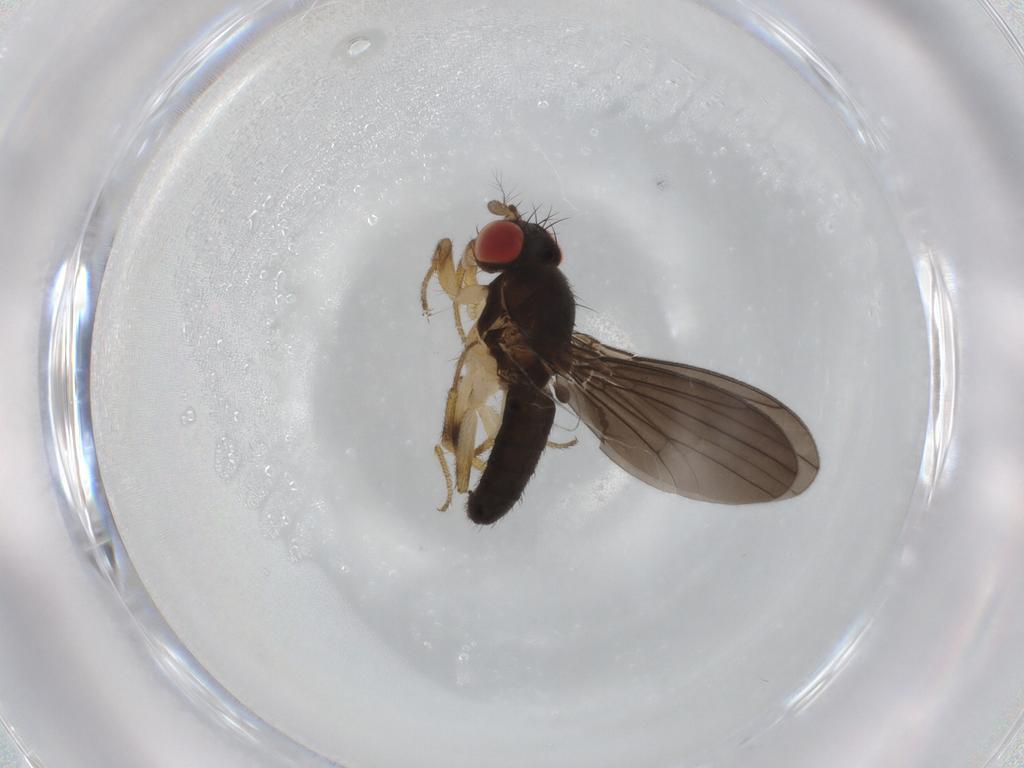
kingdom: Animalia
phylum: Arthropoda
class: Insecta
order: Diptera
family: Drosophilidae
